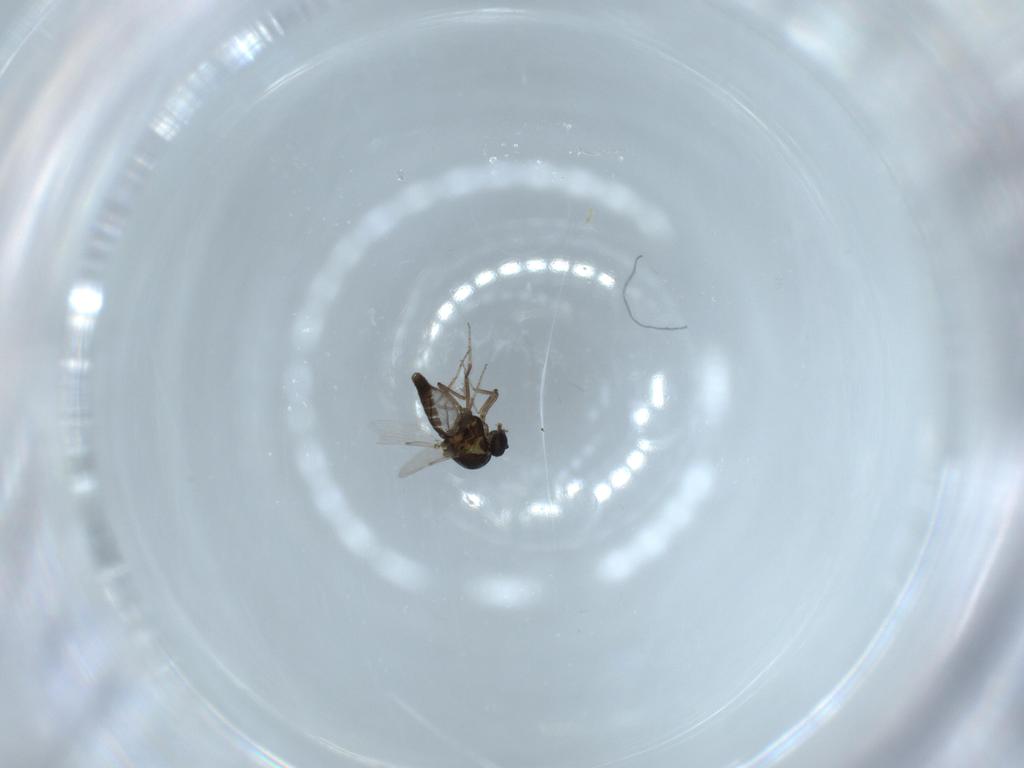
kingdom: Animalia
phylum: Arthropoda
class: Insecta
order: Diptera
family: Ceratopogonidae
